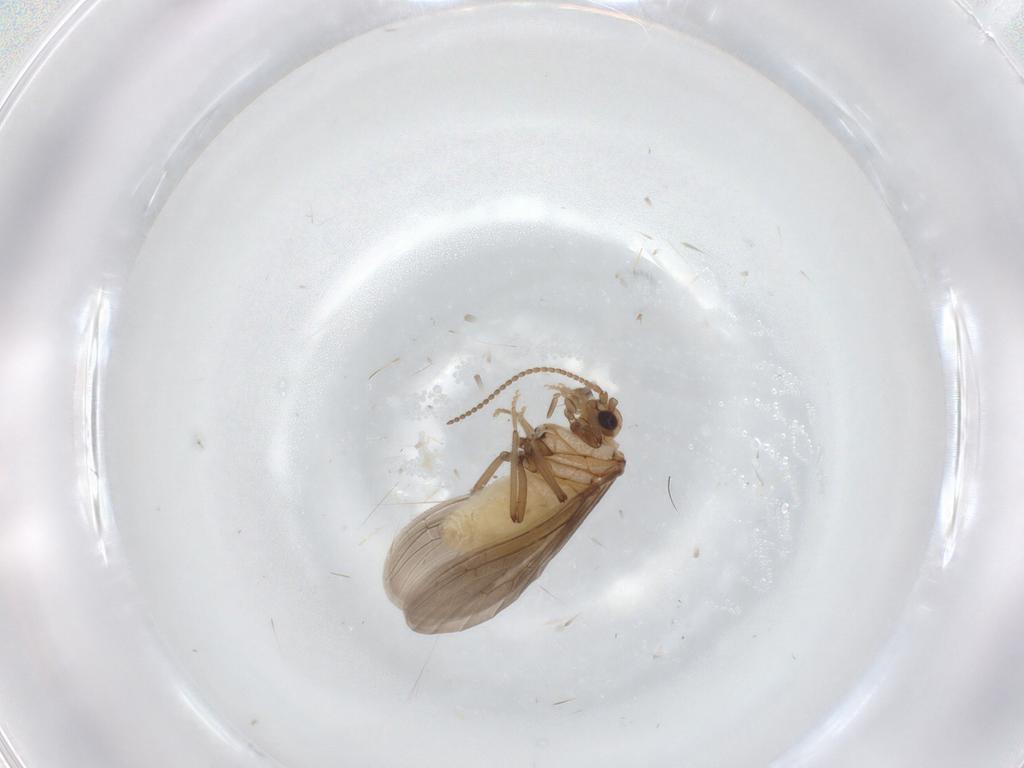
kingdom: Animalia
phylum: Arthropoda
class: Insecta
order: Neuroptera
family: Coniopterygidae
